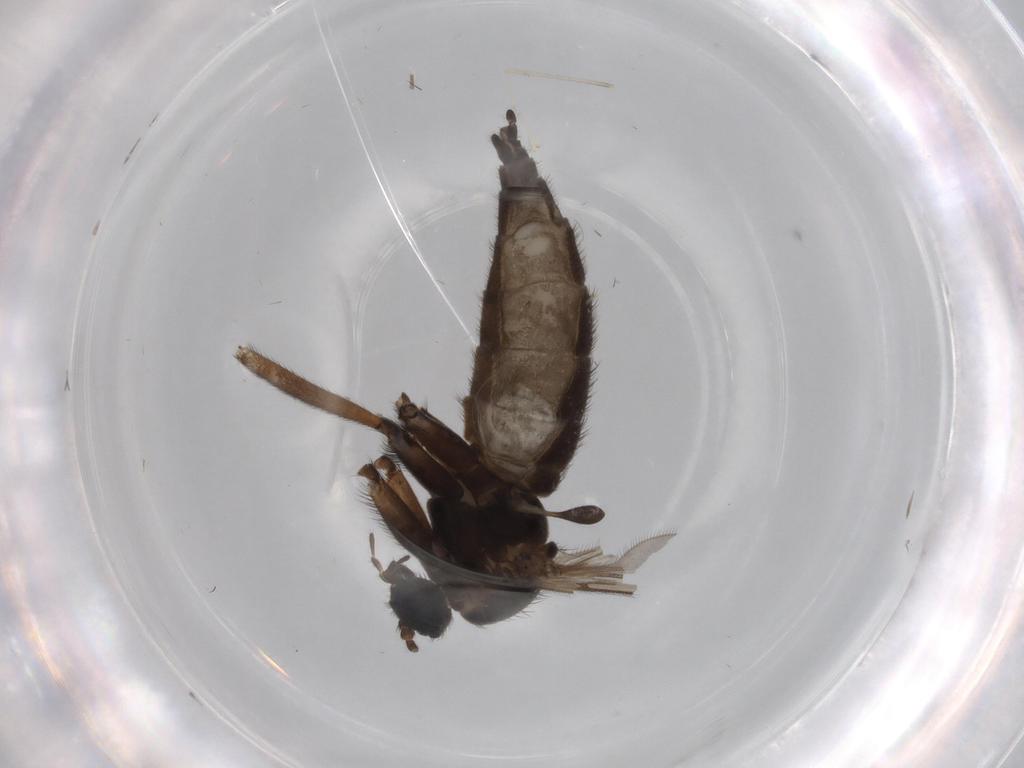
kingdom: Animalia
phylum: Arthropoda
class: Insecta
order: Diptera
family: Sciaridae
